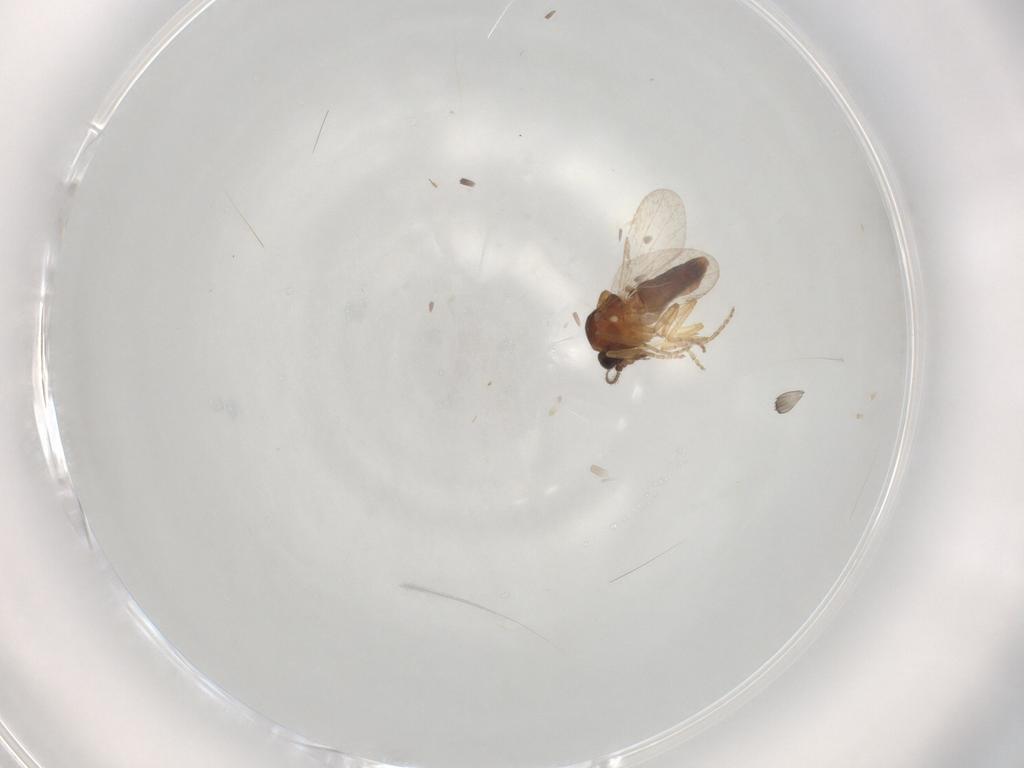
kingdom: Animalia
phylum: Arthropoda
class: Insecta
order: Diptera
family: Ceratopogonidae
